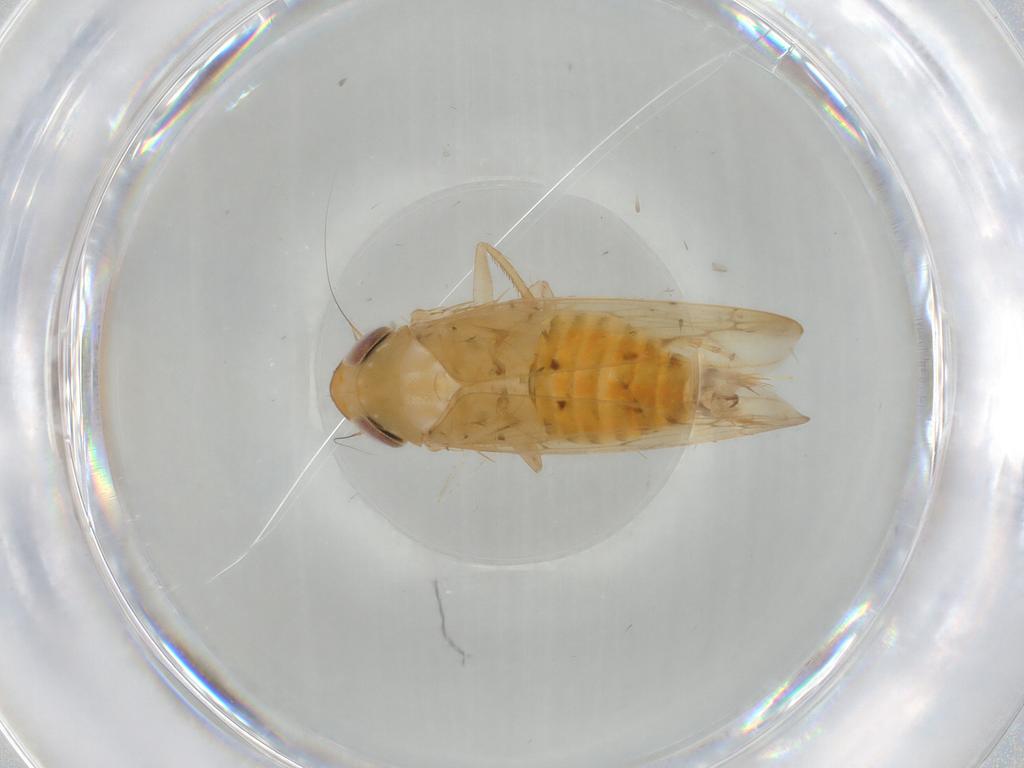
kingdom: Animalia
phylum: Arthropoda
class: Insecta
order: Hemiptera
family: Cicadellidae
